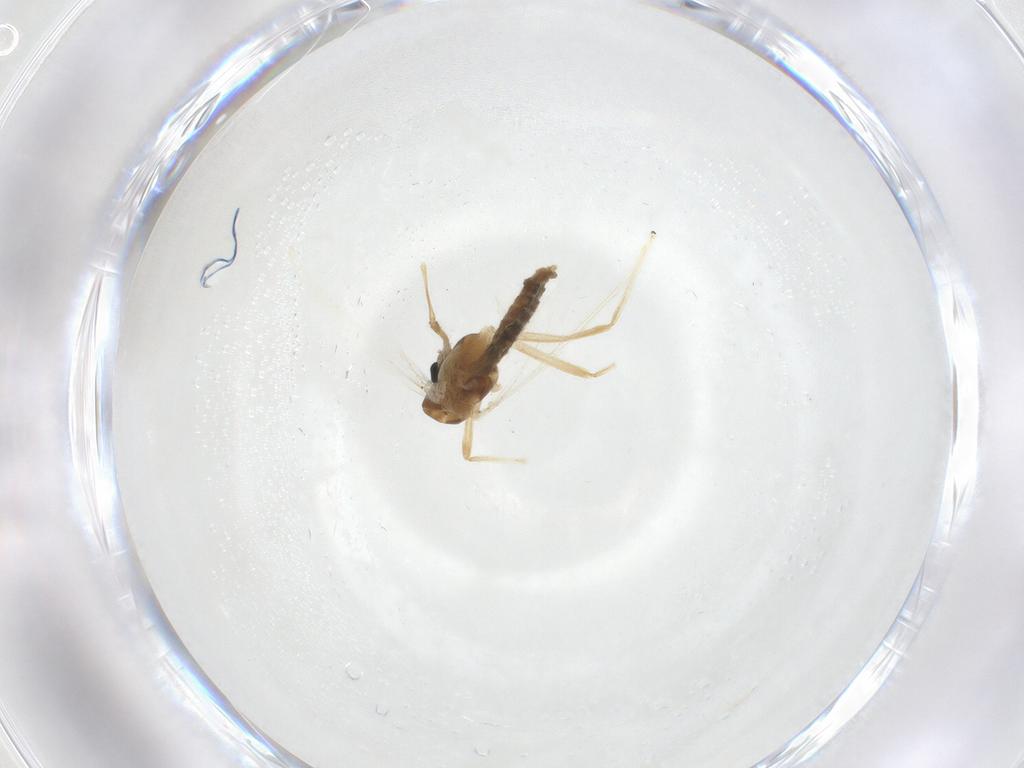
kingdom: Animalia
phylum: Arthropoda
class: Insecta
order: Diptera
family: Chironomidae
